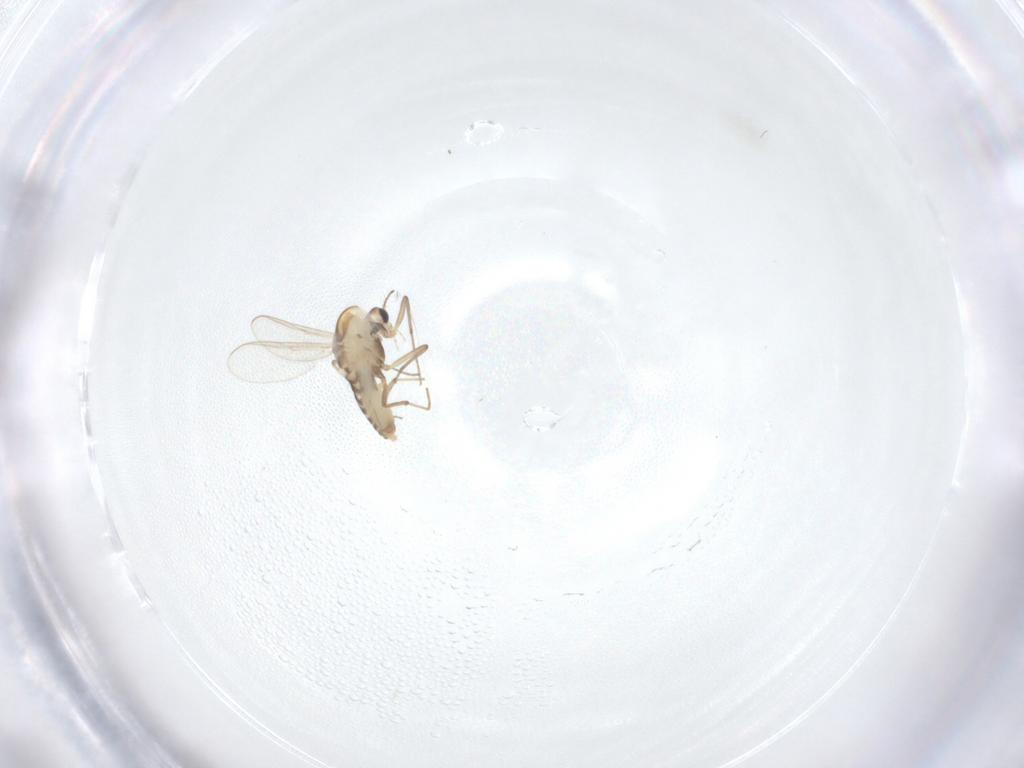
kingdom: Animalia
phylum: Arthropoda
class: Insecta
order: Diptera
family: Chironomidae
